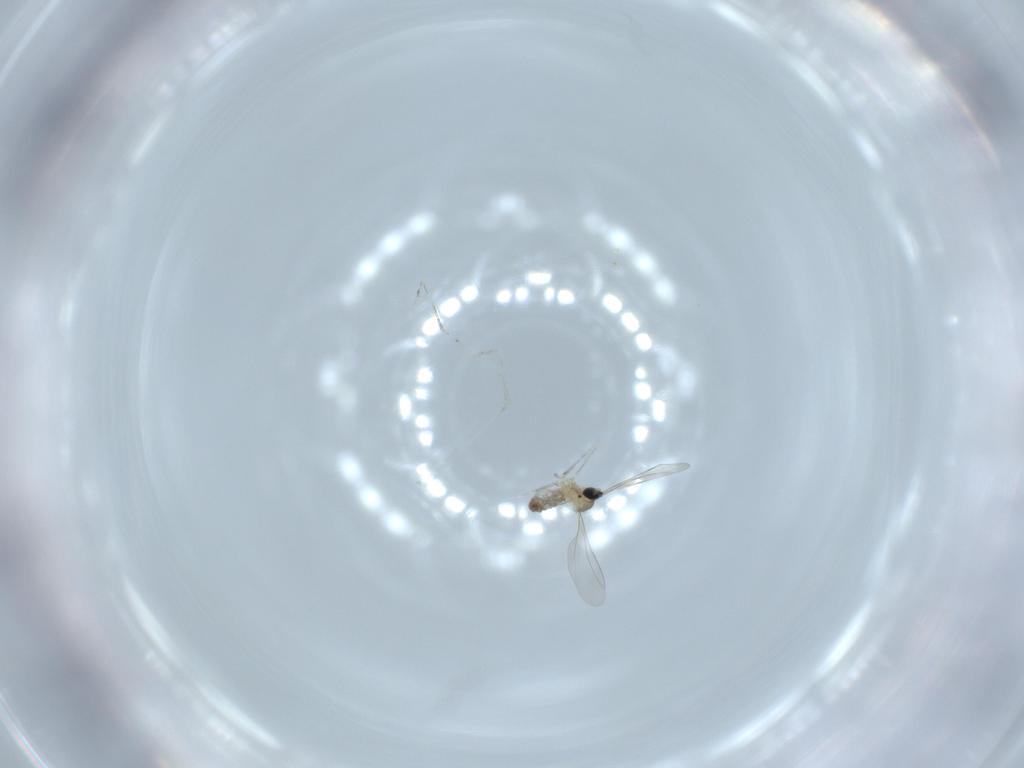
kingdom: Animalia
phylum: Arthropoda
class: Insecta
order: Diptera
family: Cecidomyiidae
